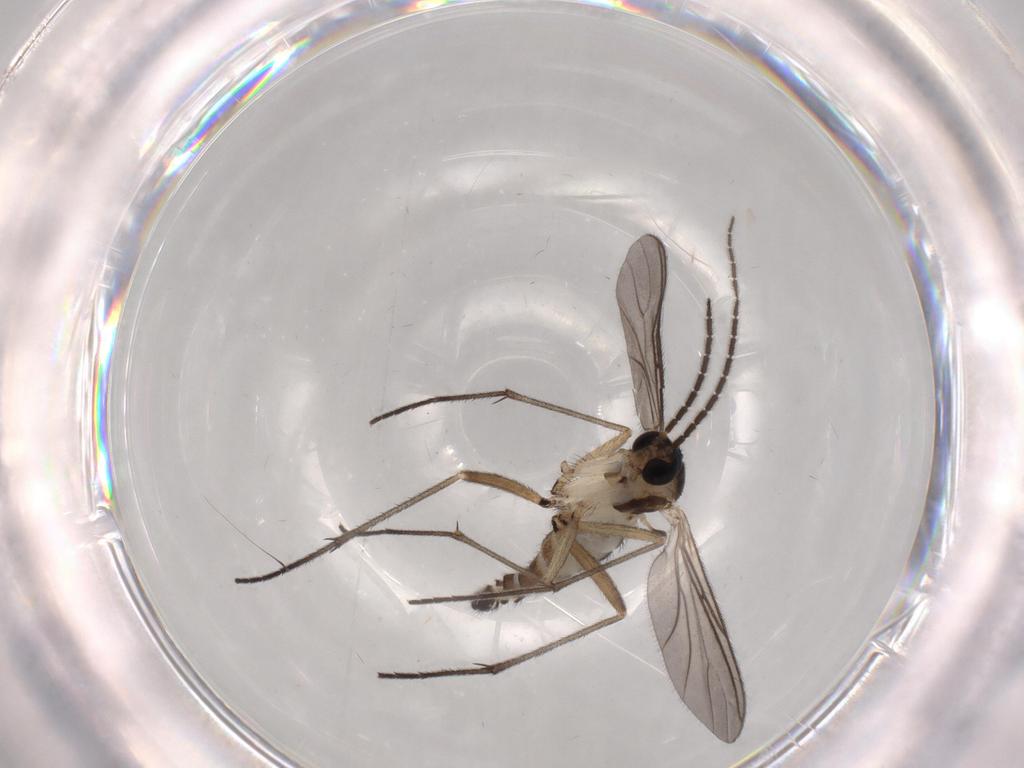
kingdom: Animalia
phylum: Arthropoda
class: Insecta
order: Diptera
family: Sciaridae
